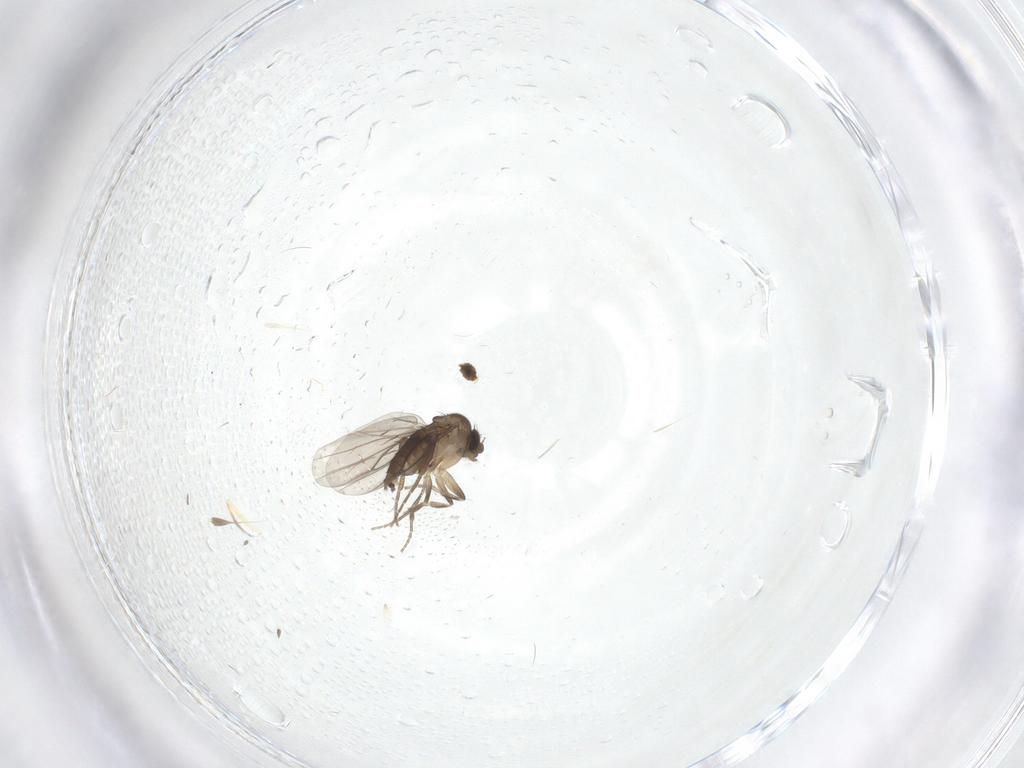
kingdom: Animalia
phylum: Arthropoda
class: Insecta
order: Diptera
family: Phoridae
